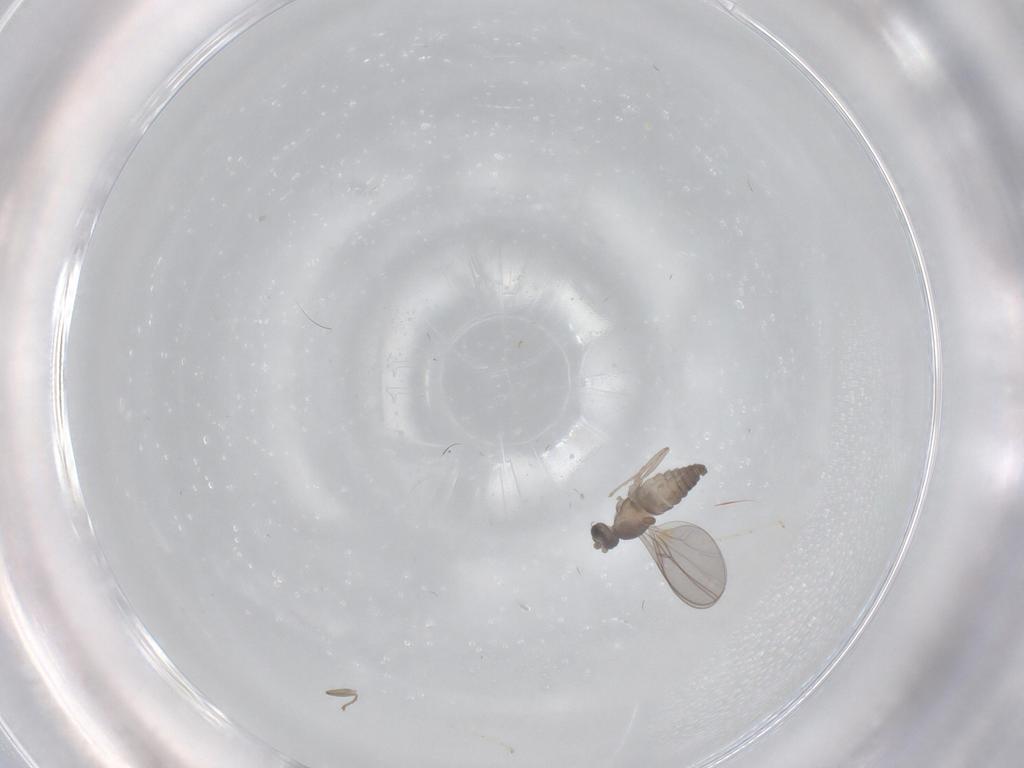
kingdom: Animalia
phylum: Arthropoda
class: Insecta
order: Diptera
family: Cecidomyiidae
